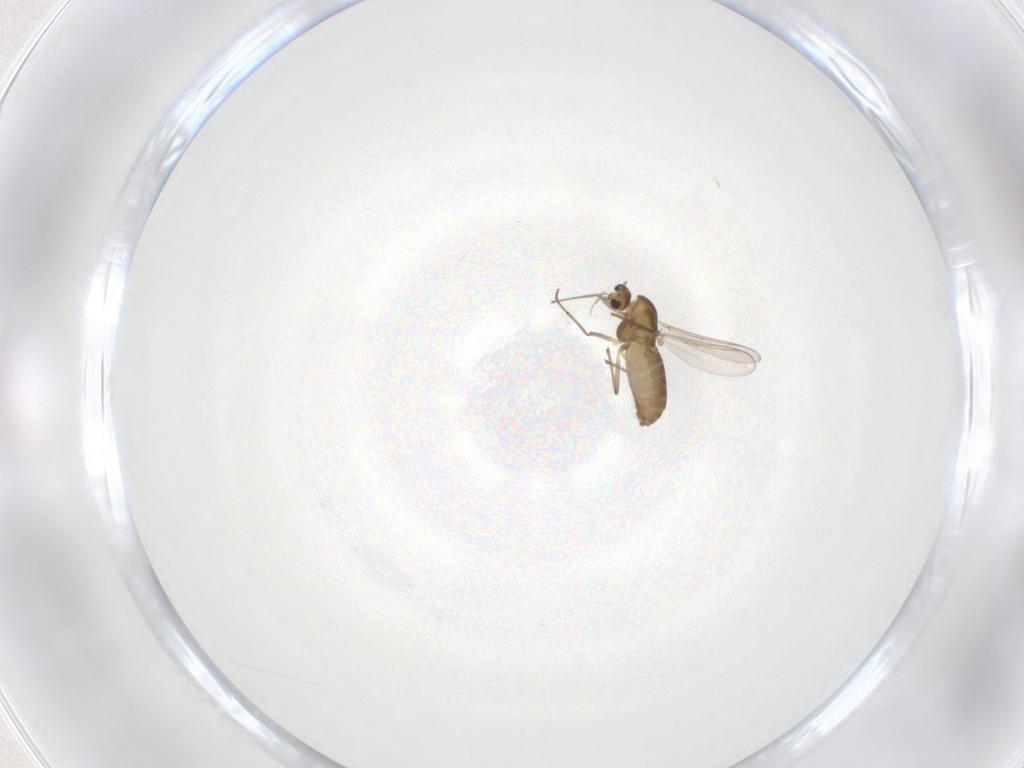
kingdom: Animalia
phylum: Arthropoda
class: Insecta
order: Diptera
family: Chironomidae
